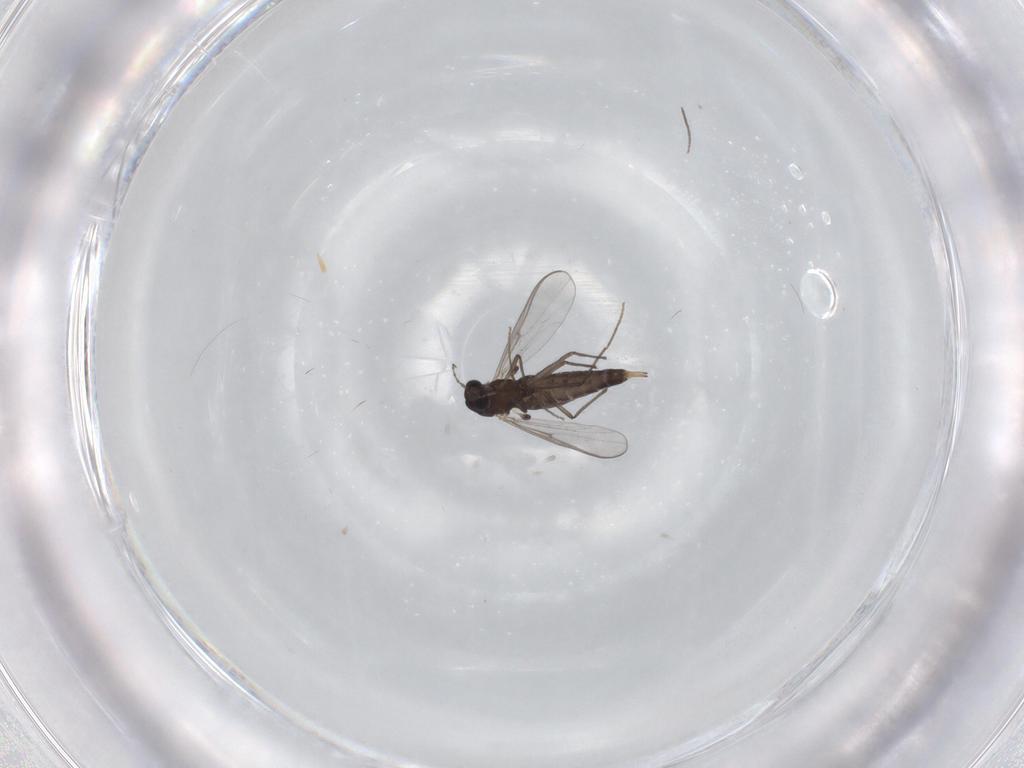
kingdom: Animalia
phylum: Arthropoda
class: Insecta
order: Diptera
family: Chironomidae
